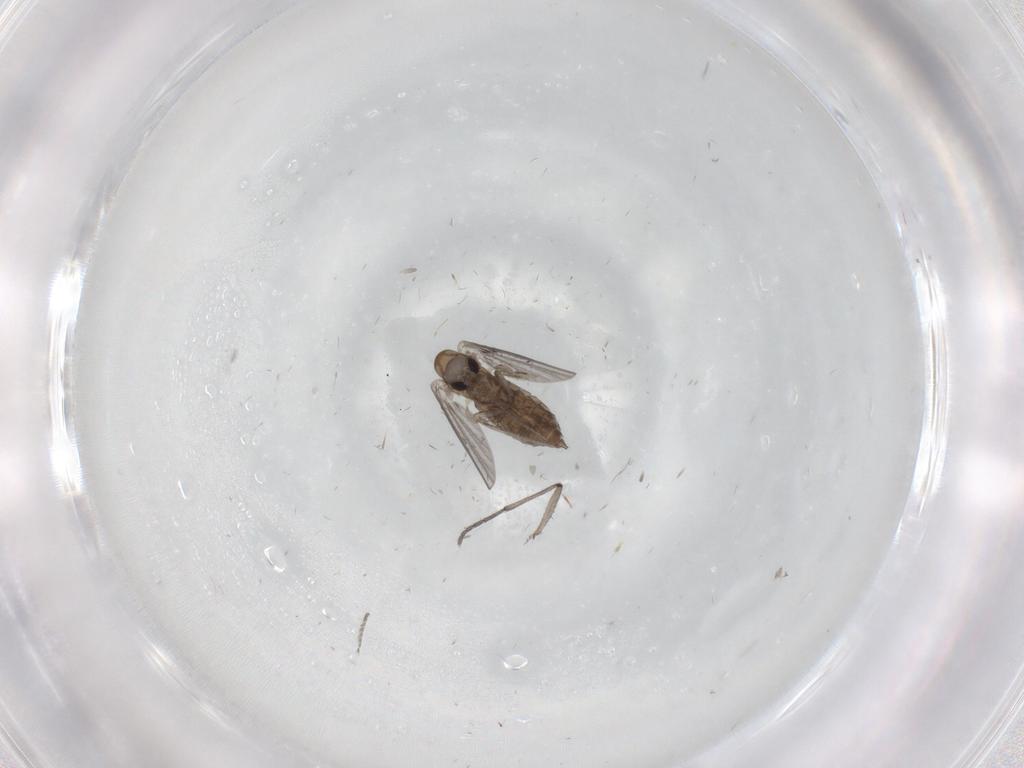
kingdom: Animalia
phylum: Arthropoda
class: Insecta
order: Diptera
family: Sciaridae
